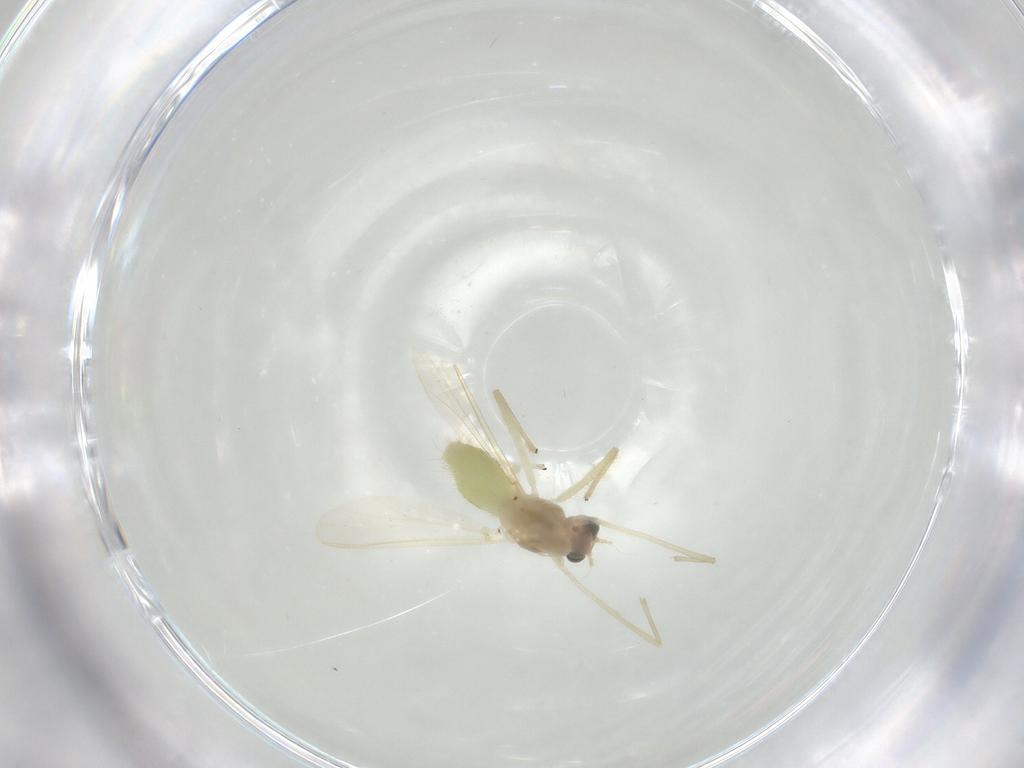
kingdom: Animalia
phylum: Arthropoda
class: Insecta
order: Diptera
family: Chironomidae
